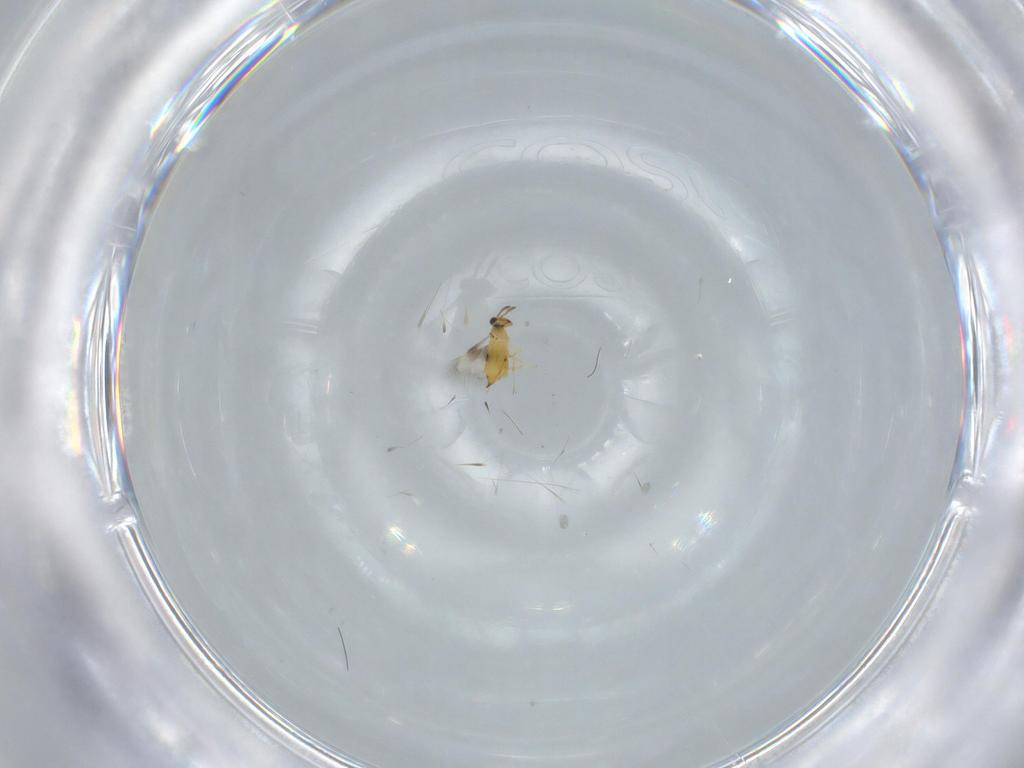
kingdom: Animalia
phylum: Arthropoda
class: Insecta
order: Hymenoptera
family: Signiphoridae
